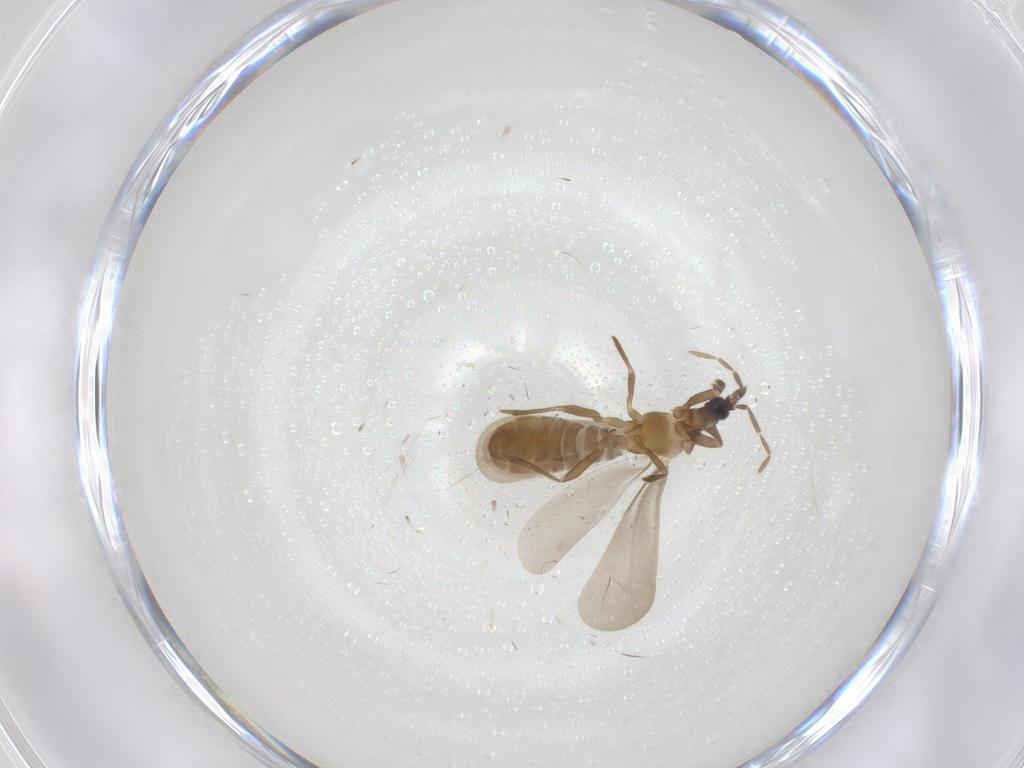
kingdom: Animalia
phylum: Arthropoda
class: Insecta
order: Hemiptera
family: Enicocephalidae
